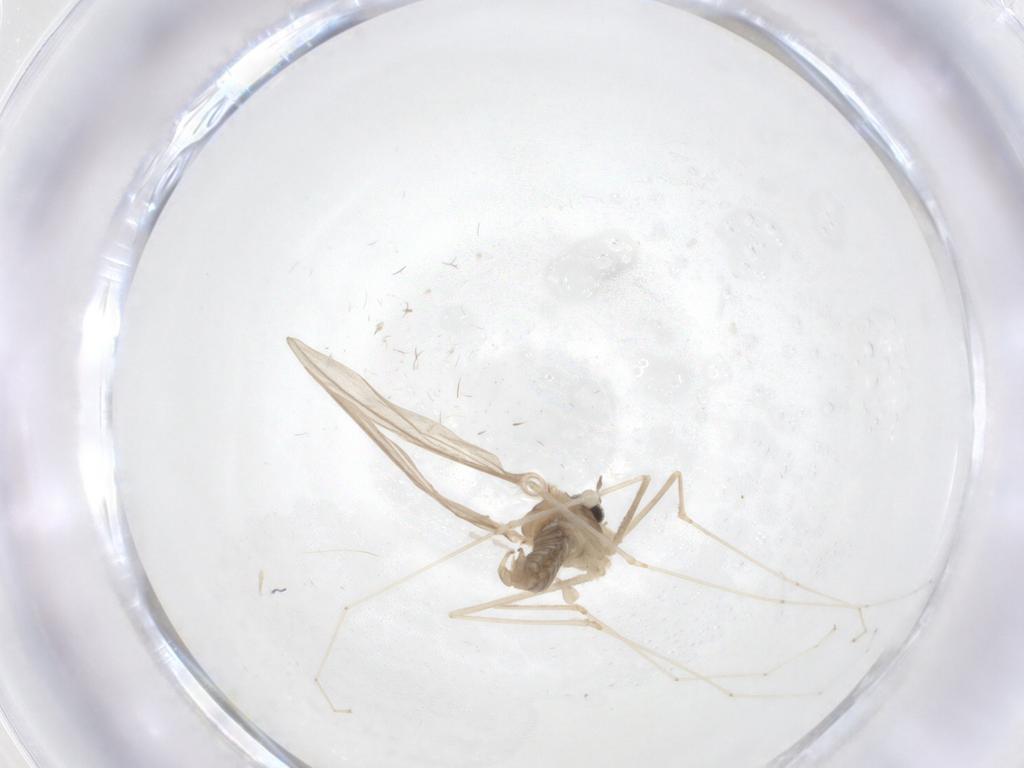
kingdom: Animalia
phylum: Arthropoda
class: Insecta
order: Diptera
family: Cecidomyiidae
